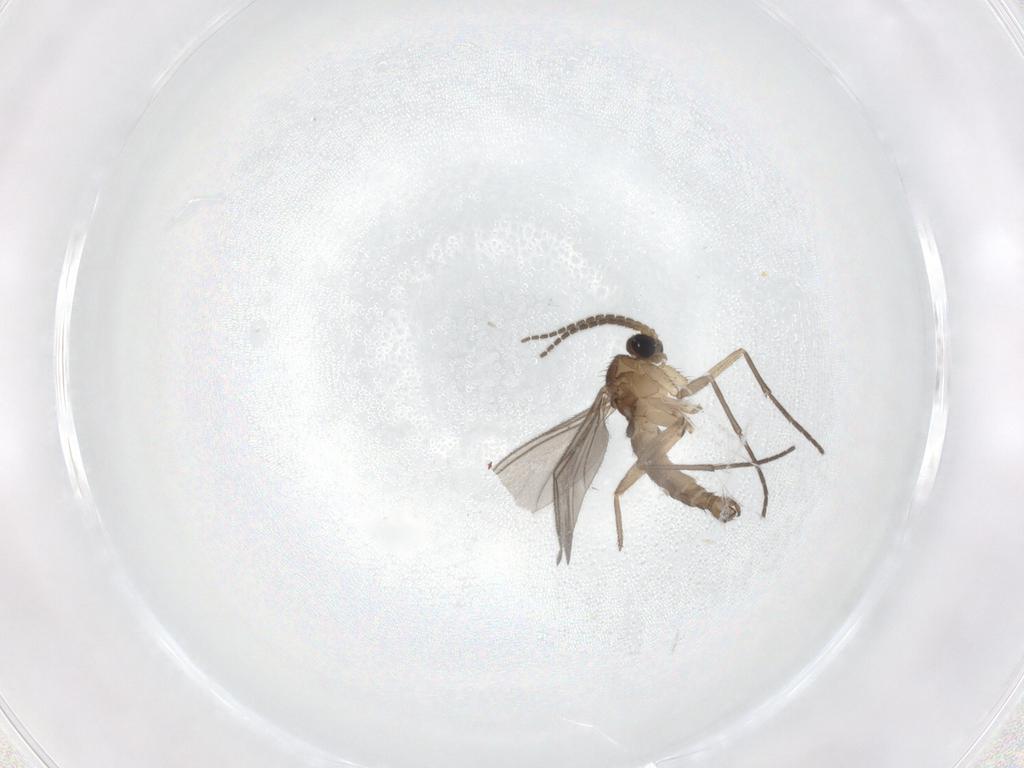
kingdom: Animalia
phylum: Arthropoda
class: Insecta
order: Diptera
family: Sciaridae
